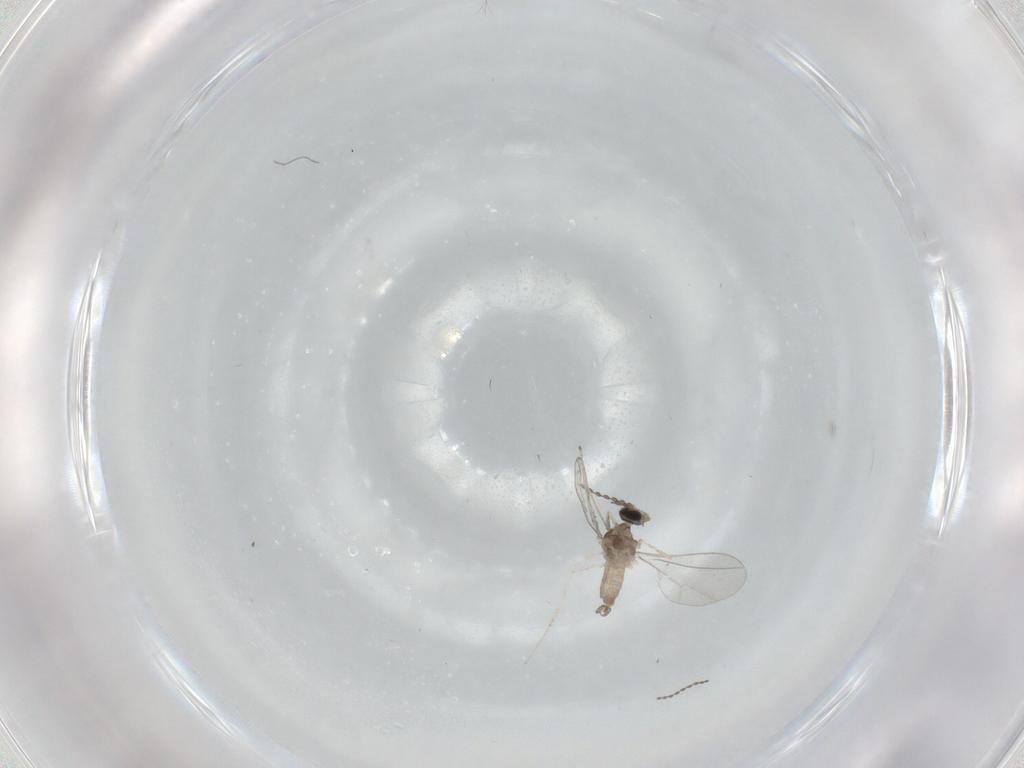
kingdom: Animalia
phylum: Arthropoda
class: Insecta
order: Diptera
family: Cecidomyiidae
